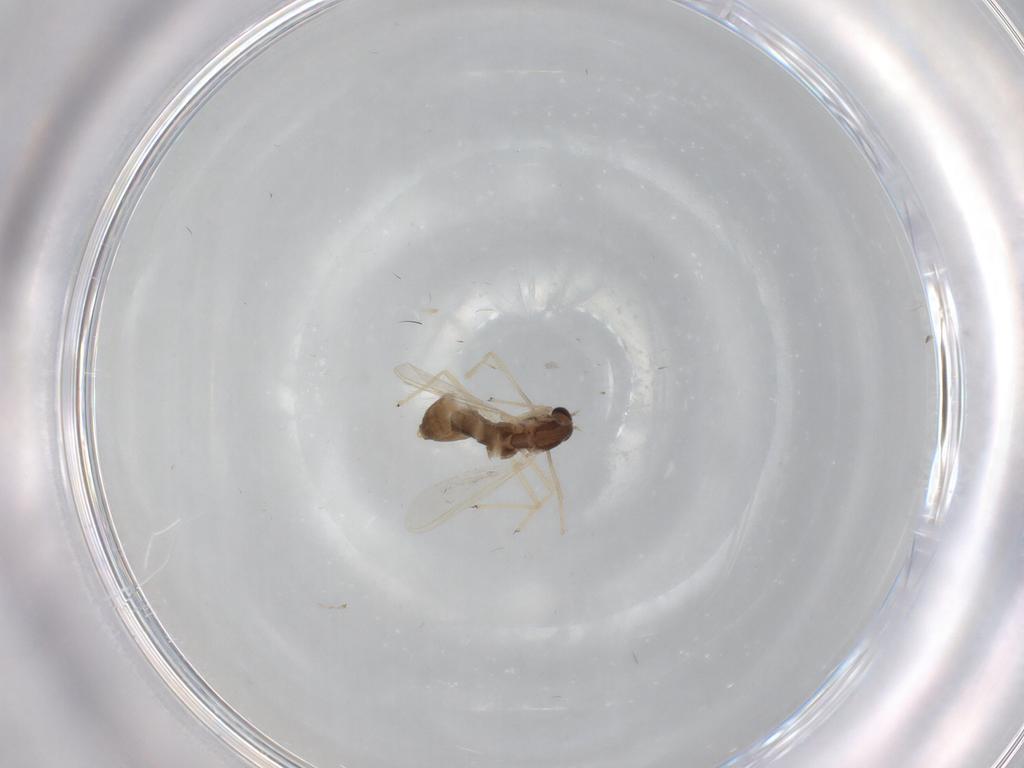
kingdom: Animalia
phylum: Arthropoda
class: Insecta
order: Diptera
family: Chironomidae
